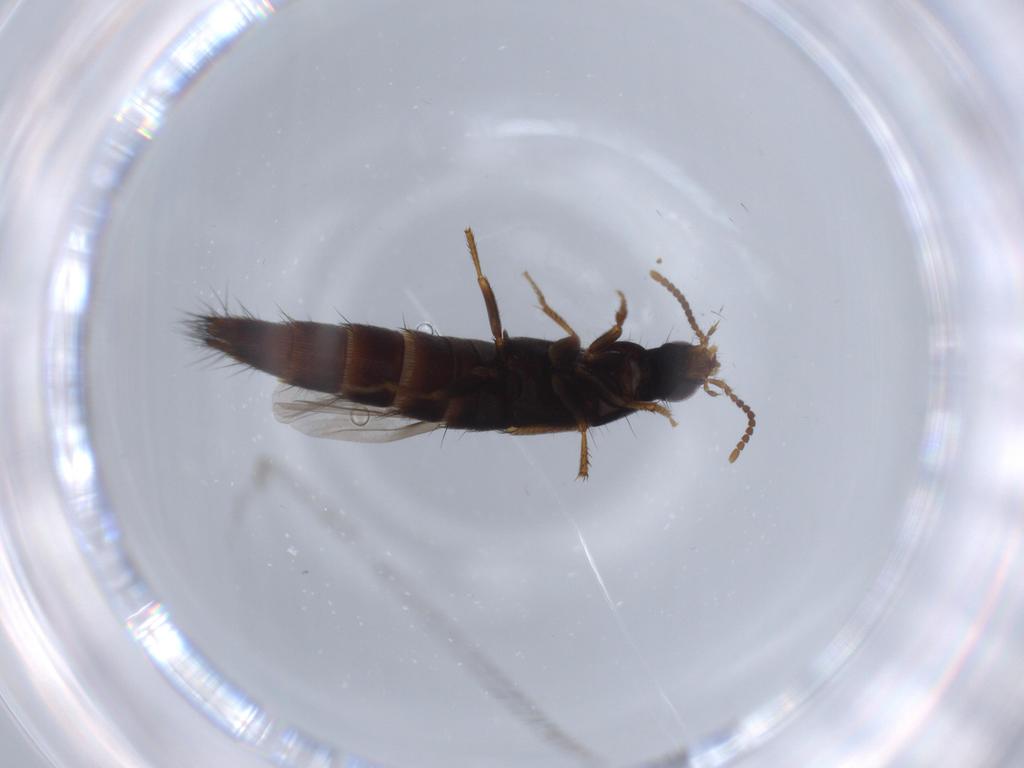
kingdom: Animalia
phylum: Arthropoda
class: Insecta
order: Coleoptera
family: Staphylinidae
